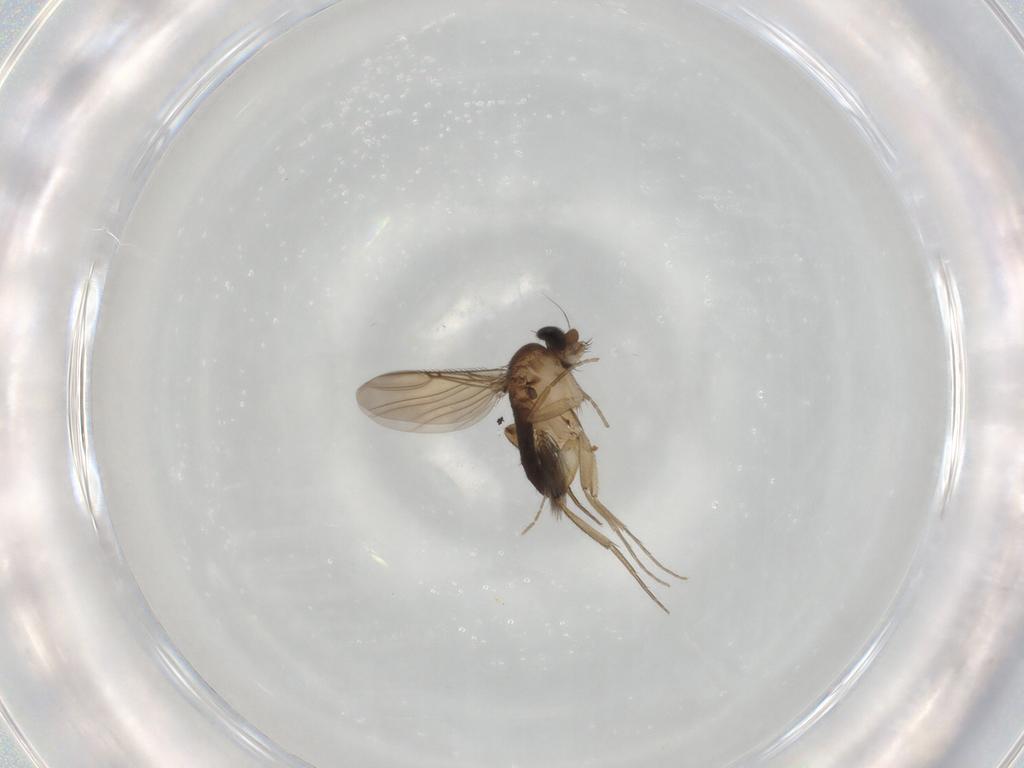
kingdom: Animalia
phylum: Arthropoda
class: Insecta
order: Diptera
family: Phoridae
